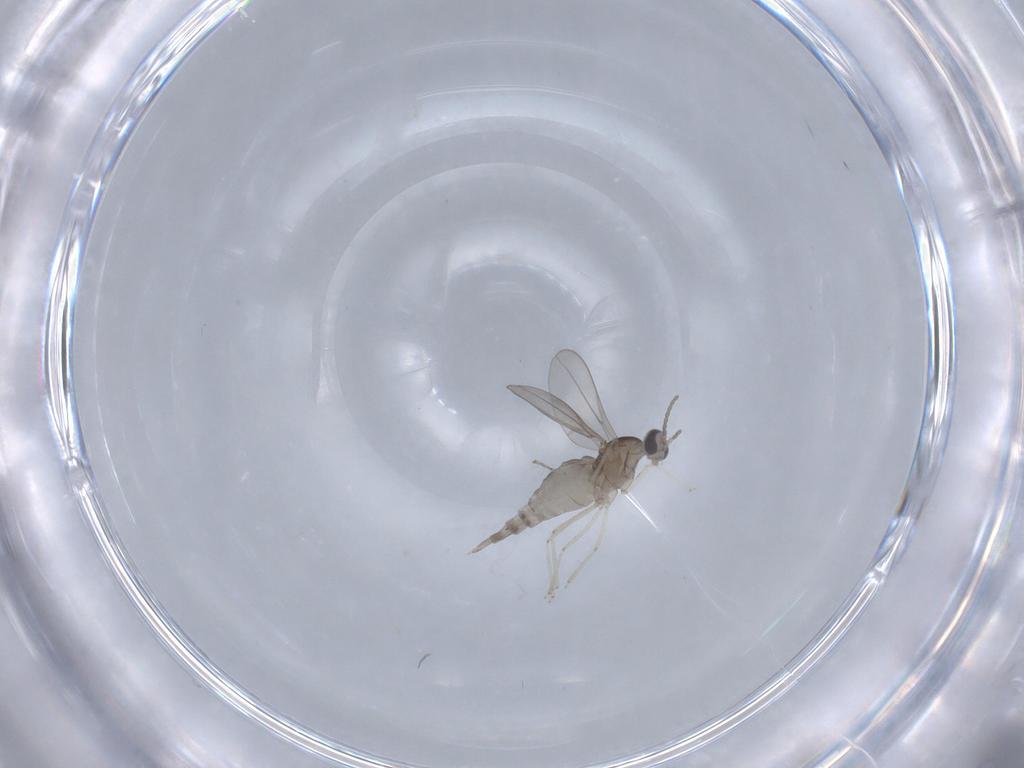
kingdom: Animalia
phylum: Arthropoda
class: Insecta
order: Diptera
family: Cecidomyiidae
